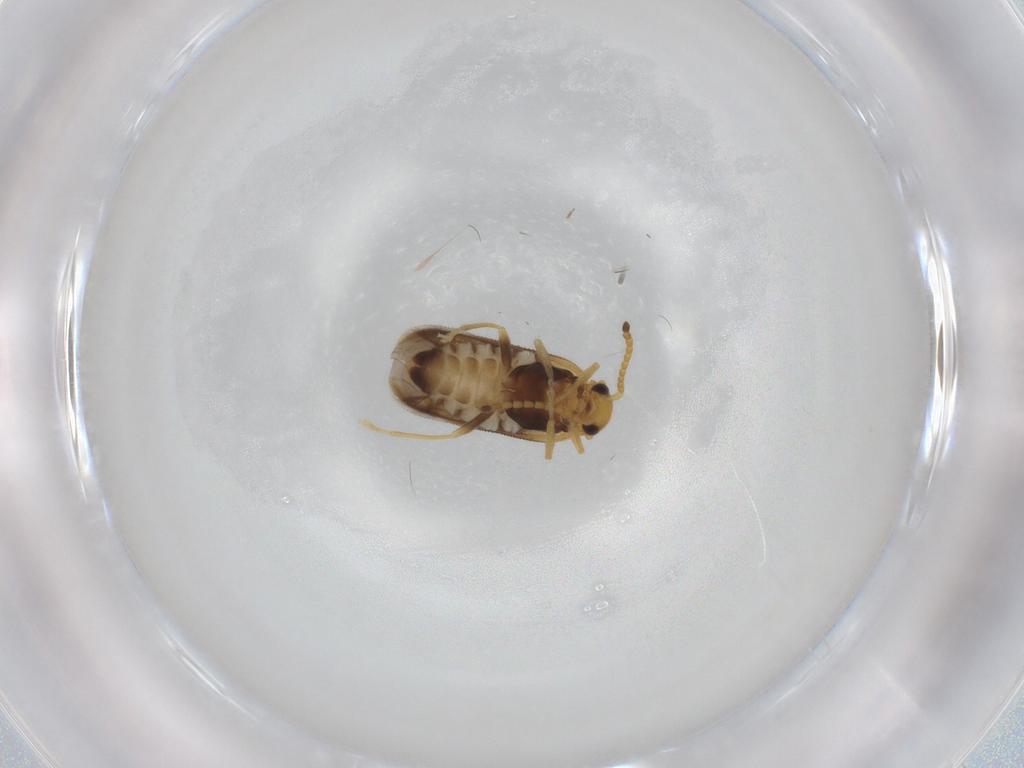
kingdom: Animalia
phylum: Arthropoda
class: Insecta
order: Coleoptera
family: Cantharidae
